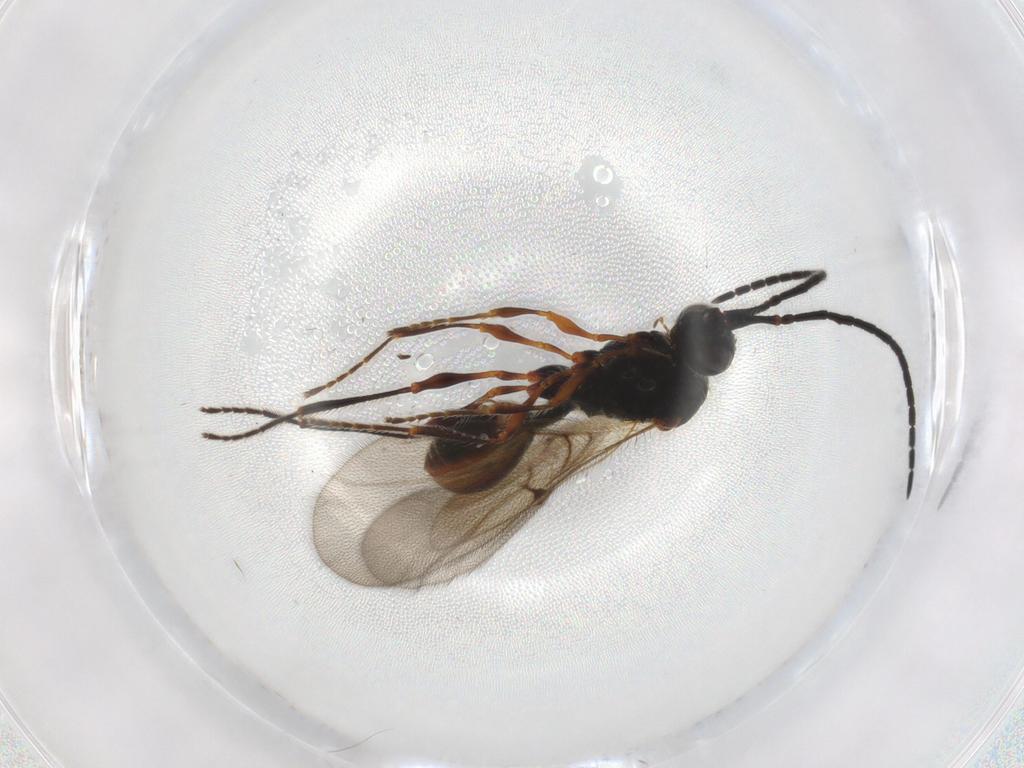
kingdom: Animalia
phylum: Arthropoda
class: Insecta
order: Hymenoptera
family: Diapriidae
